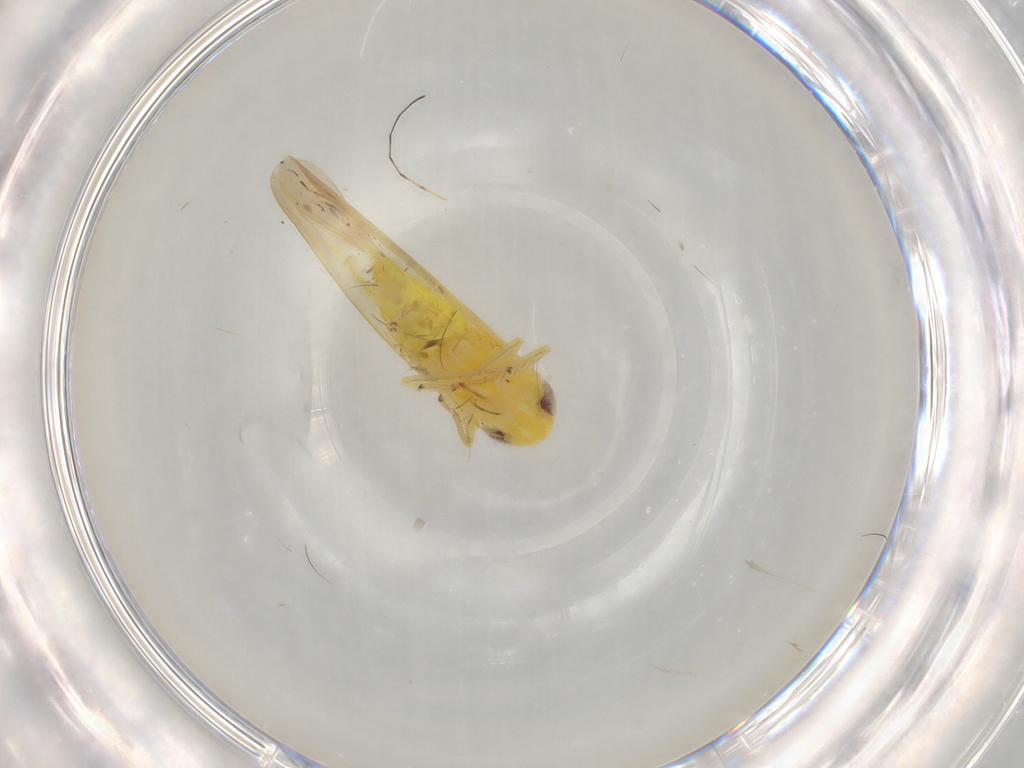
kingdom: Animalia
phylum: Arthropoda
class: Insecta
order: Hemiptera
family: Cicadellidae
